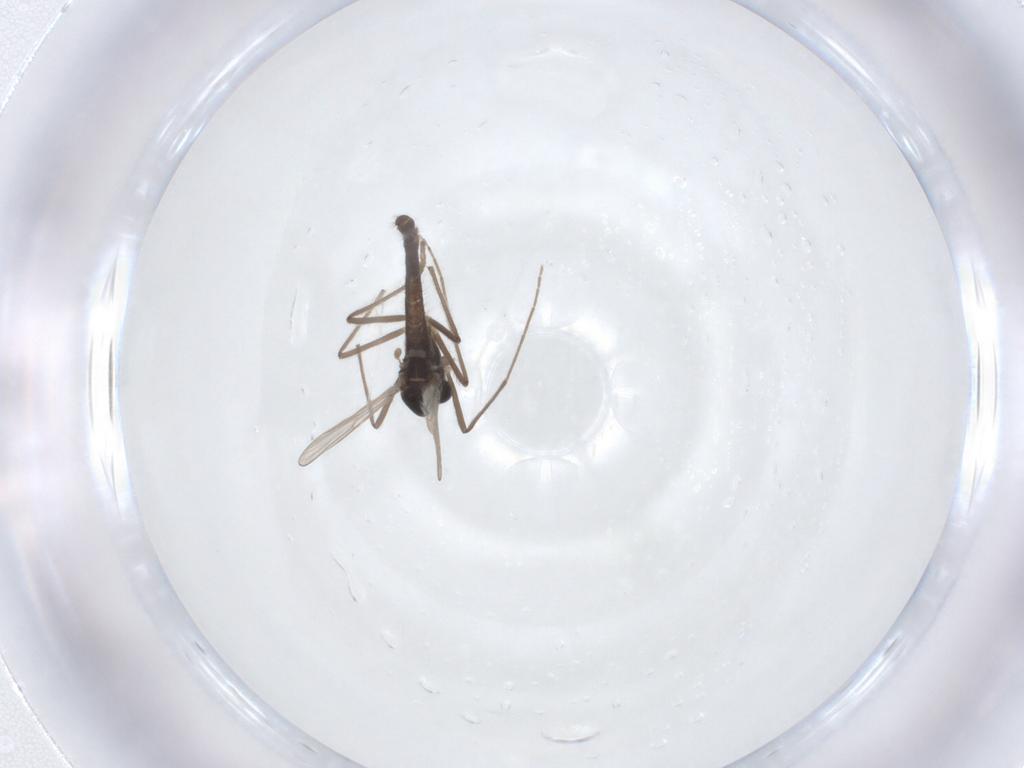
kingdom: Animalia
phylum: Arthropoda
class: Insecta
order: Diptera
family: Chironomidae
